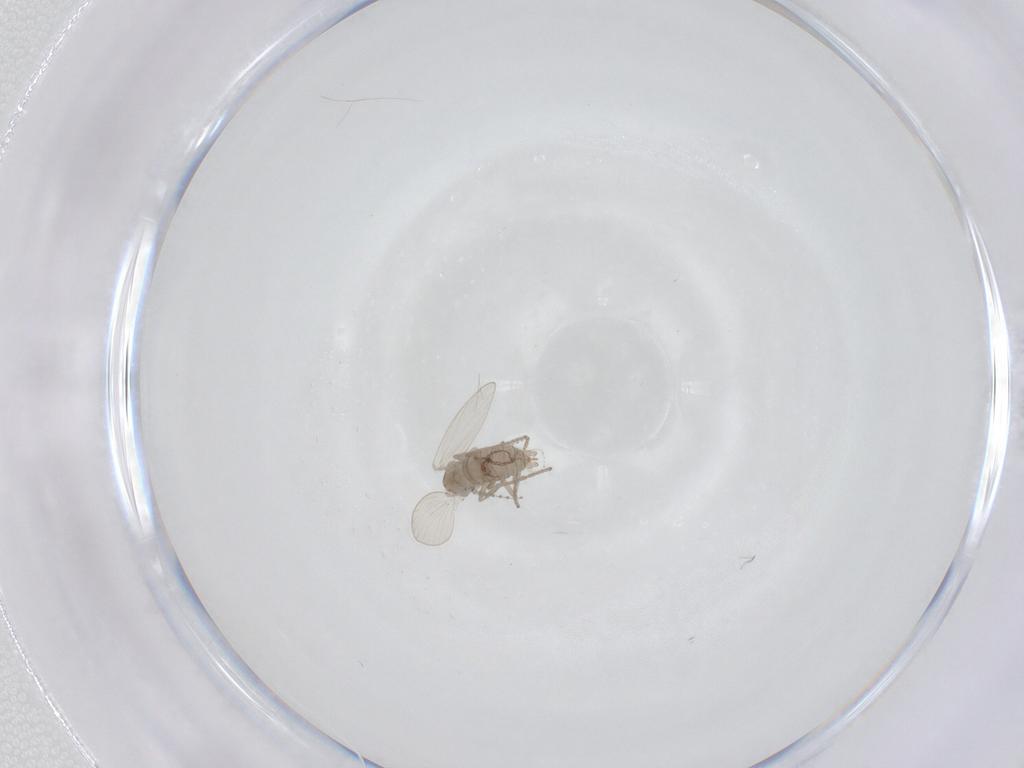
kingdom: Animalia
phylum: Arthropoda
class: Insecta
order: Diptera
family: Psychodidae
